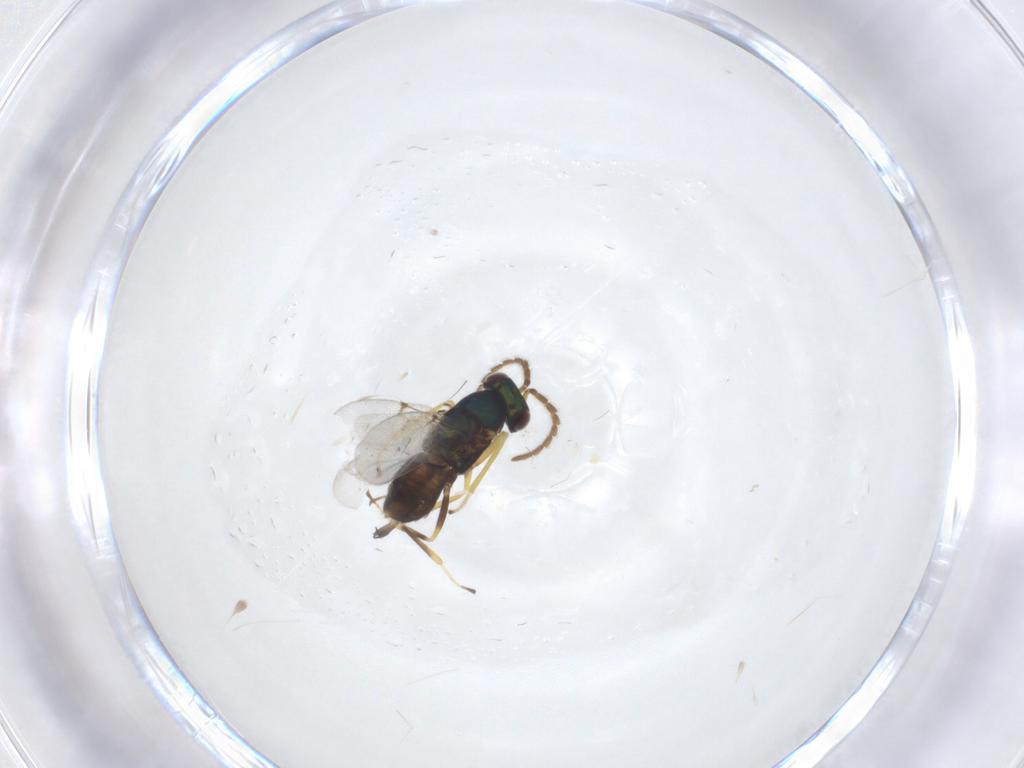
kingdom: Animalia
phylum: Arthropoda
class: Insecta
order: Hymenoptera
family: Encyrtidae
